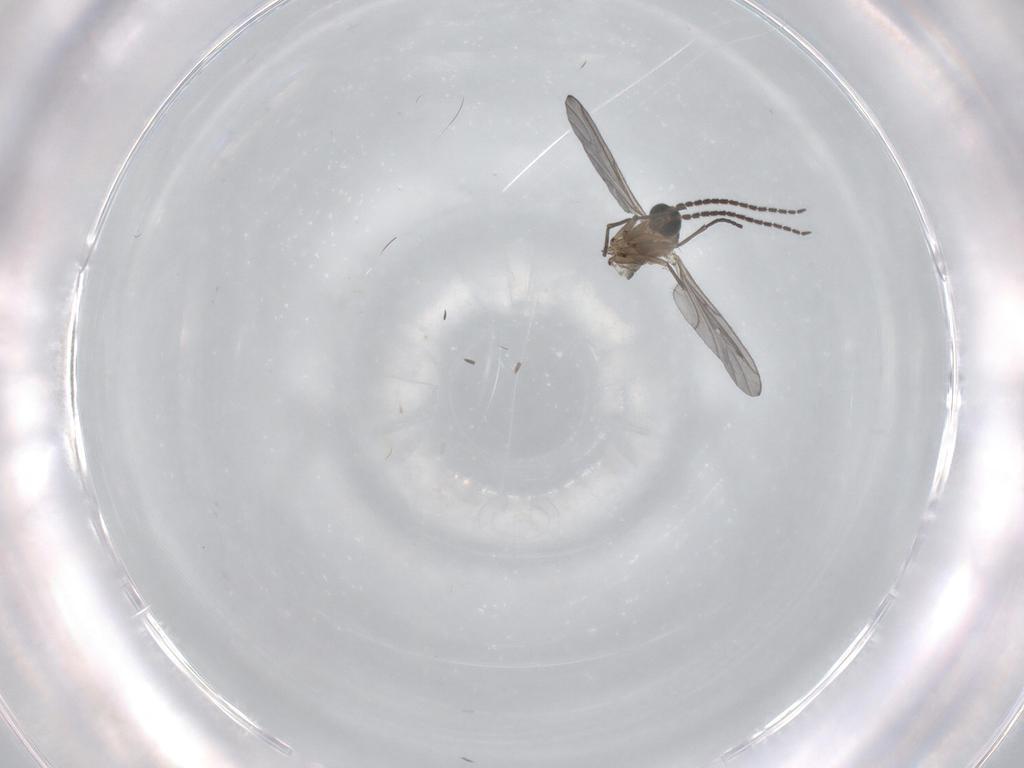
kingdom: Animalia
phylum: Arthropoda
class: Insecta
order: Diptera
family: Sciaridae
